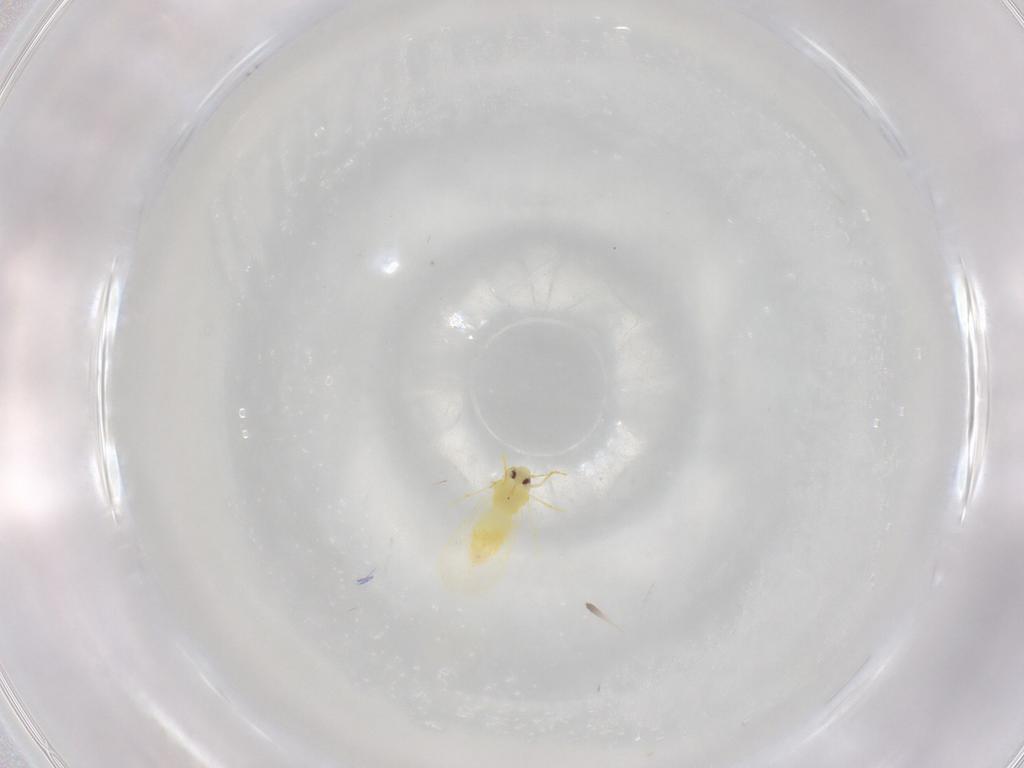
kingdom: Animalia
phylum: Arthropoda
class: Insecta
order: Hemiptera
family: Aleyrodidae
